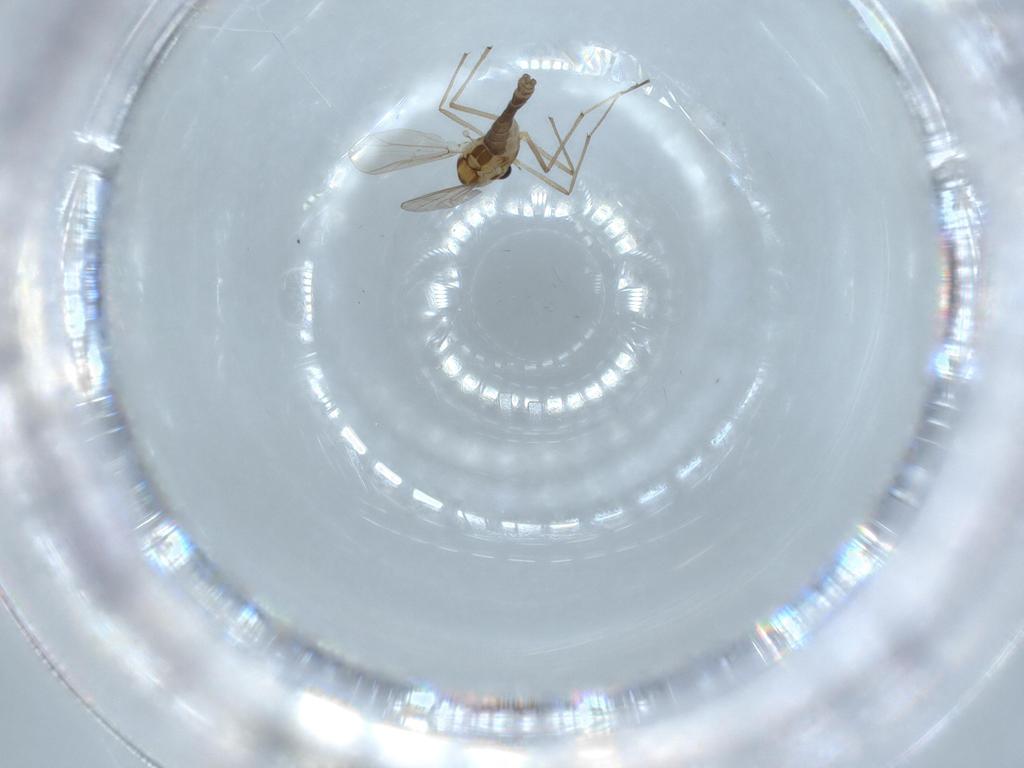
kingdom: Animalia
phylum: Arthropoda
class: Insecta
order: Diptera
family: Chironomidae
